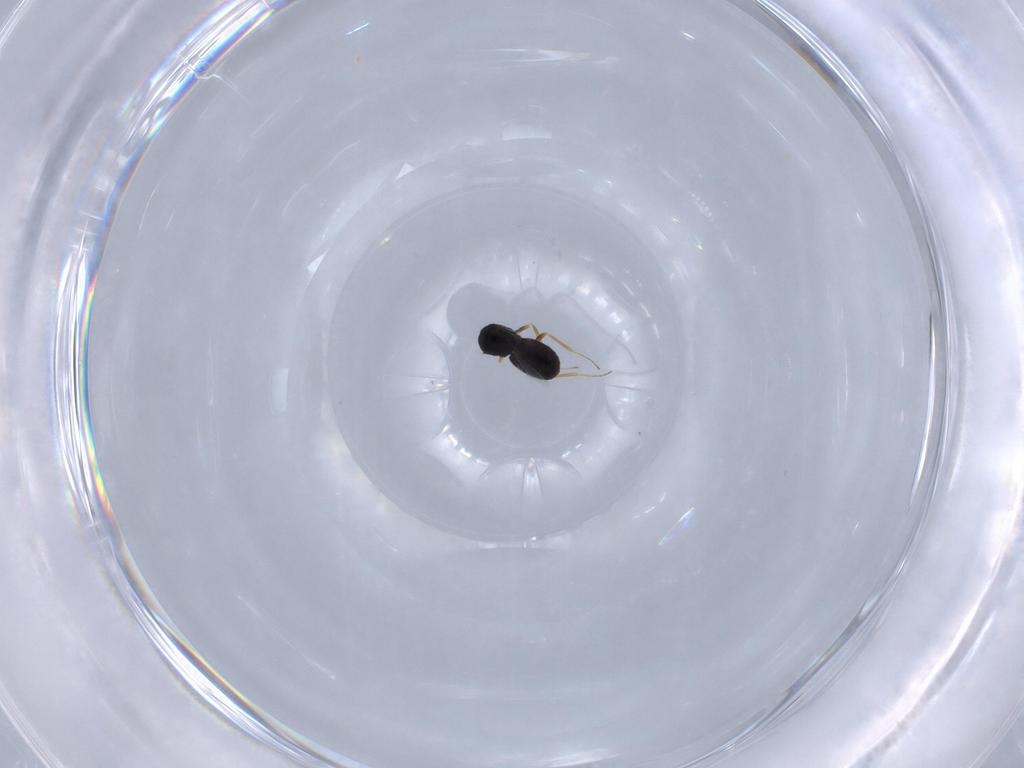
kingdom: Animalia
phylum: Arthropoda
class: Insecta
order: Hymenoptera
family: Scelionidae
